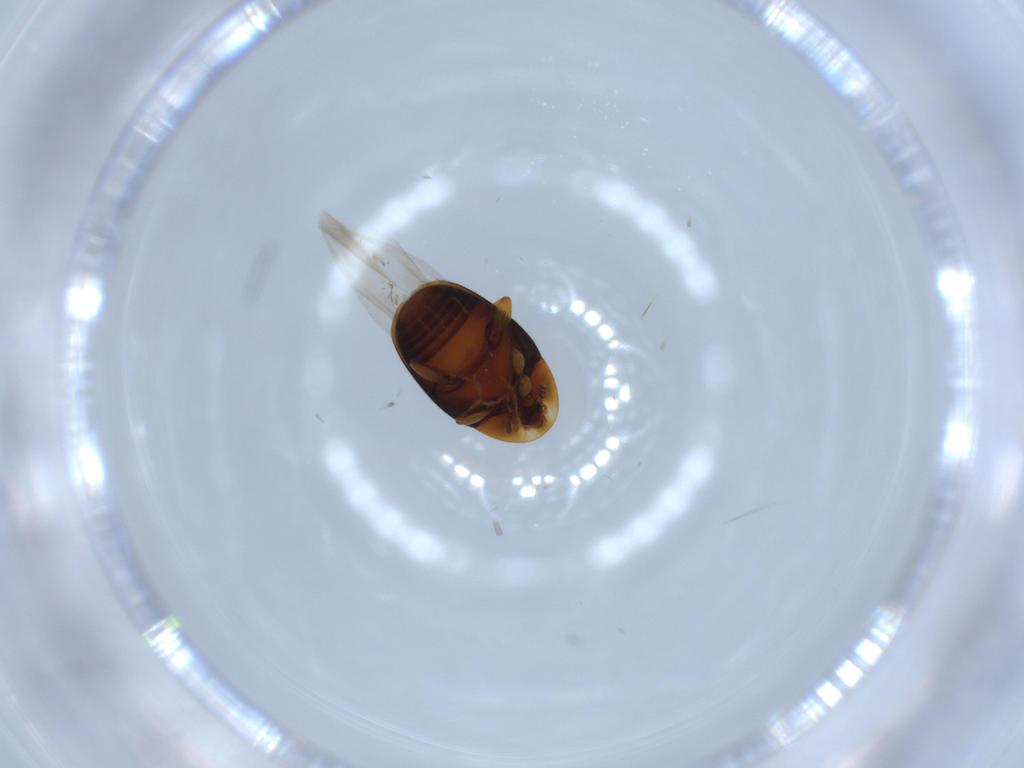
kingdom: Animalia
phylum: Arthropoda
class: Insecta
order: Coleoptera
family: Corylophidae
